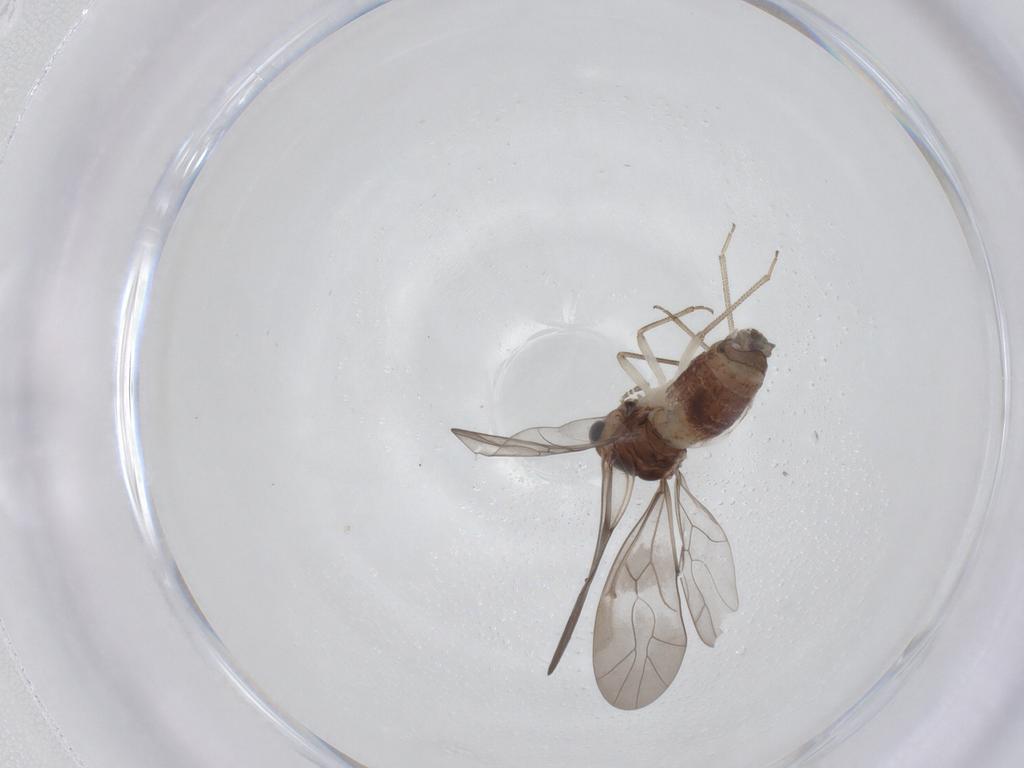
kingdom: Animalia
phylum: Arthropoda
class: Insecta
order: Psocodea
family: Peripsocidae
